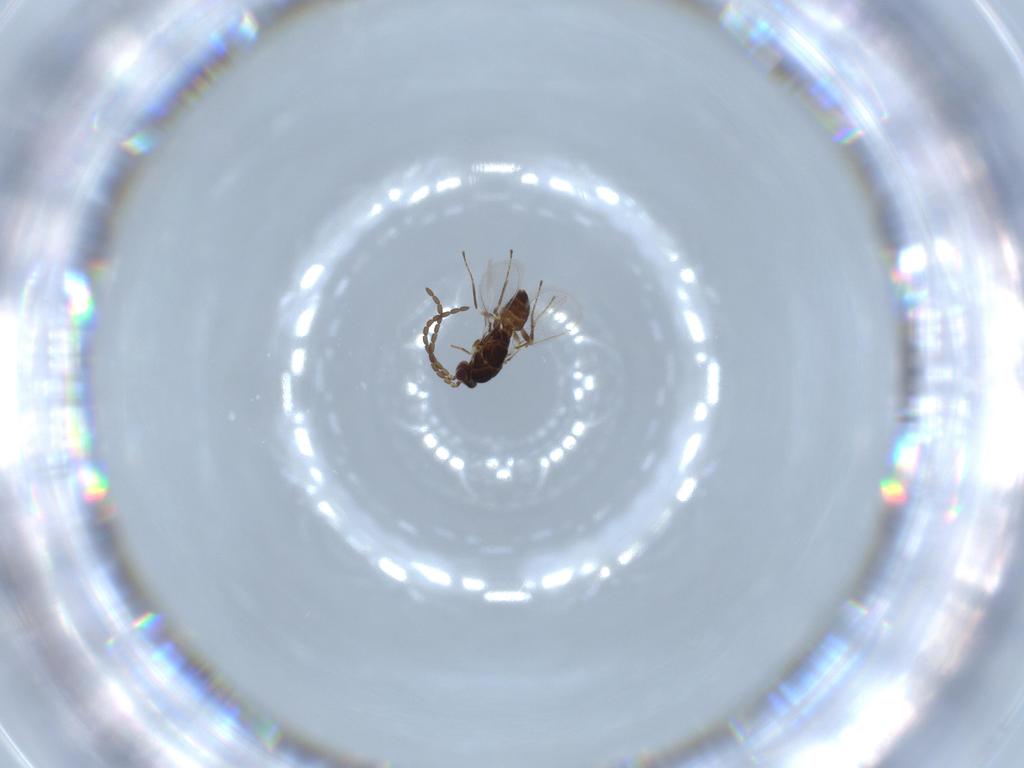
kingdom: Animalia
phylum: Arthropoda
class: Insecta
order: Hymenoptera
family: Mymaridae
